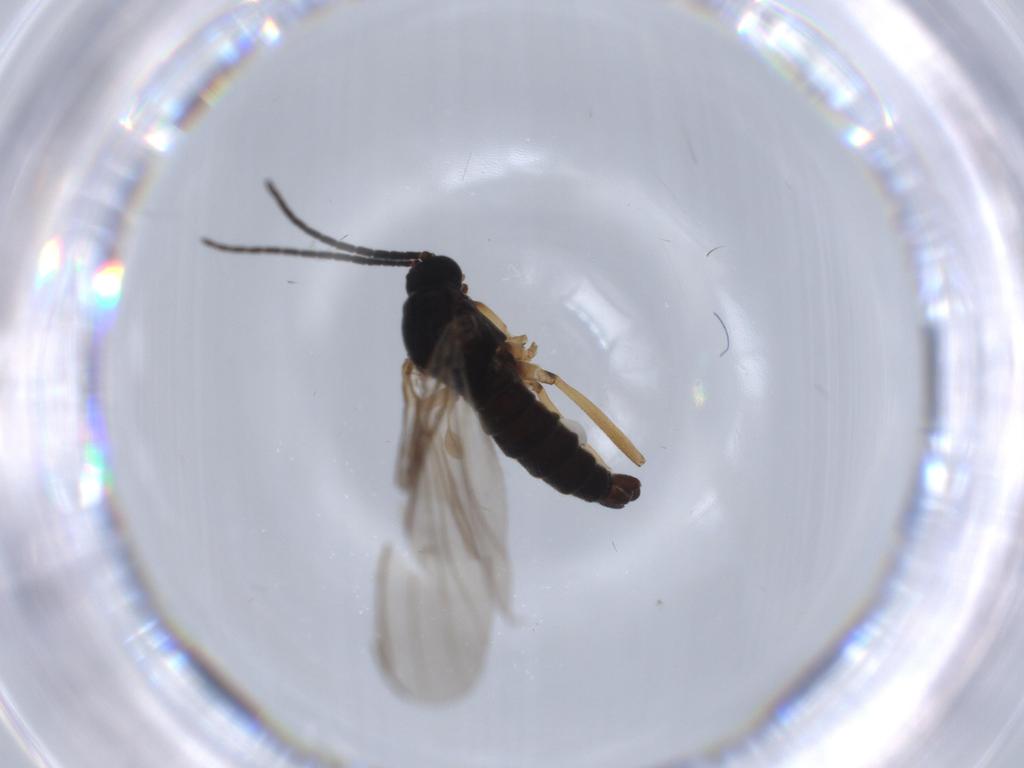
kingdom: Animalia
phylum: Arthropoda
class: Insecta
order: Diptera
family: Sciaridae
